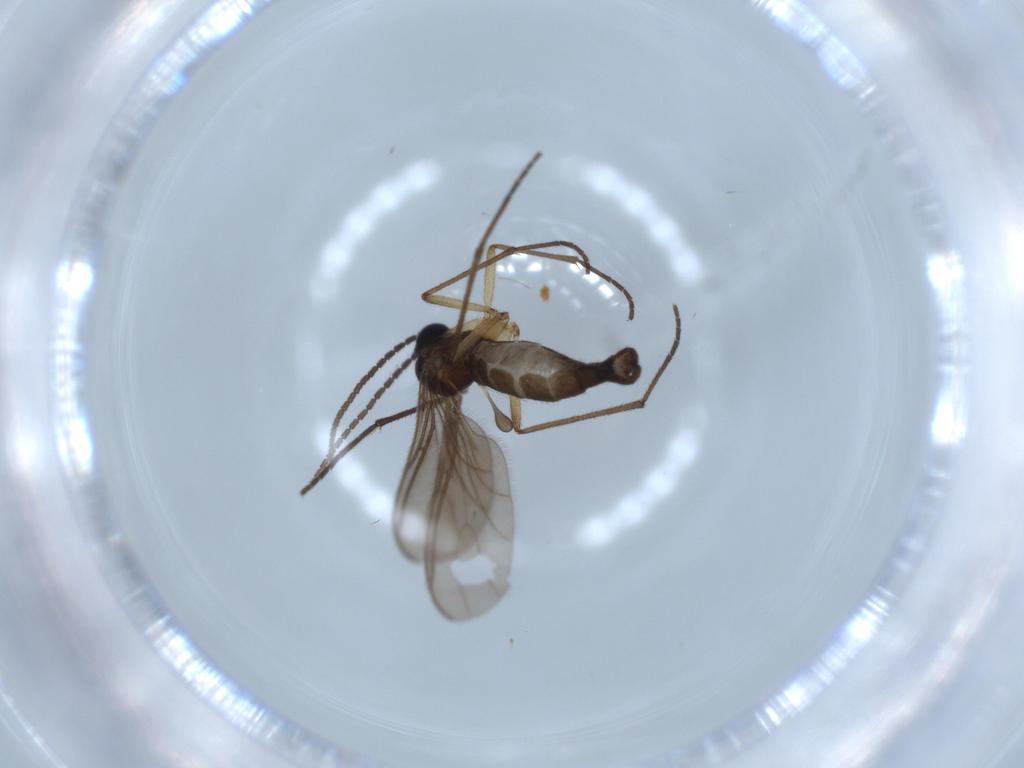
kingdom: Animalia
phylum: Arthropoda
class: Insecta
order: Diptera
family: Sciaridae
